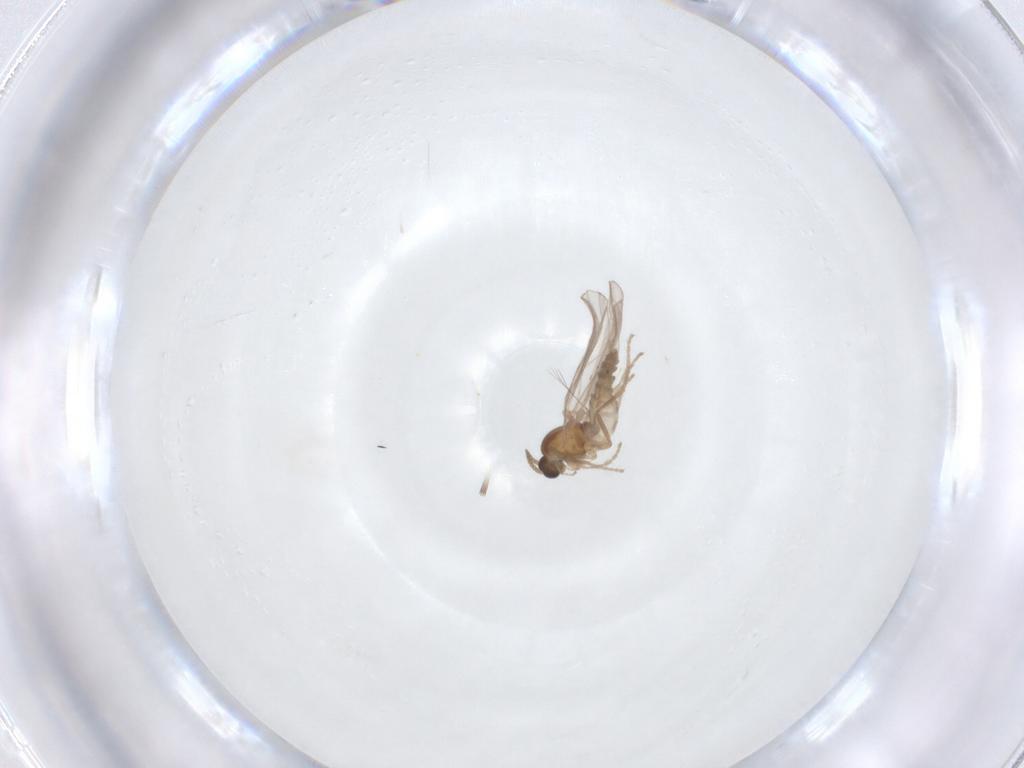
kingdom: Animalia
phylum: Arthropoda
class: Insecta
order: Diptera
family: Cecidomyiidae
